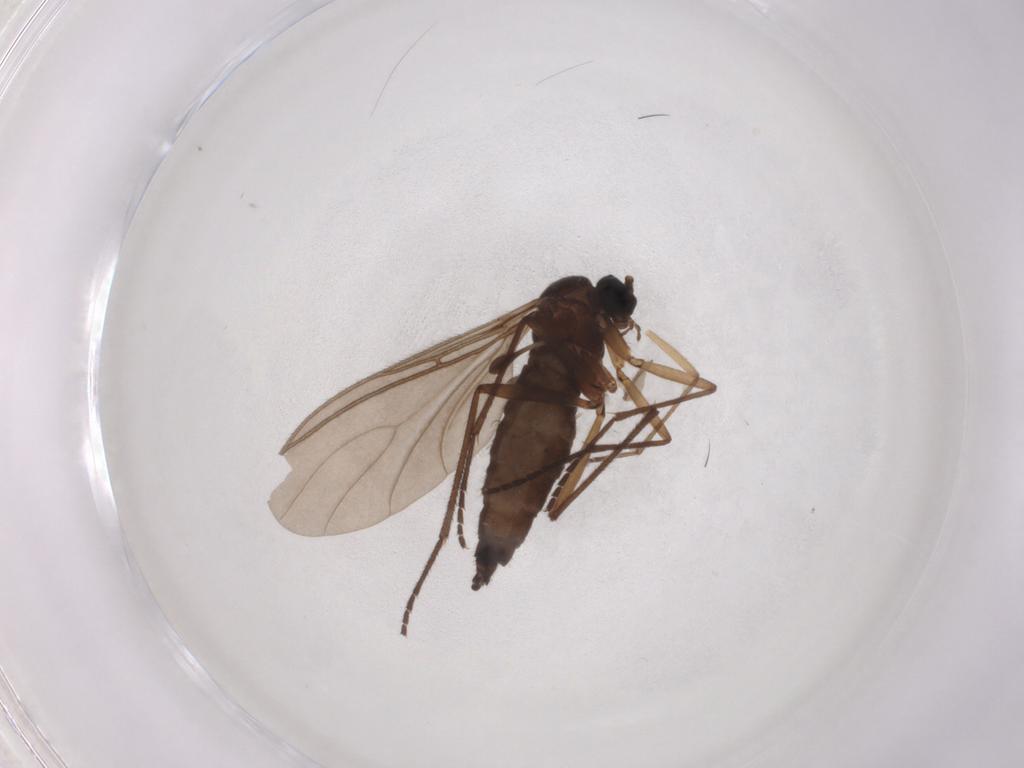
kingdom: Animalia
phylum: Arthropoda
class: Insecta
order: Diptera
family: Sciaridae
